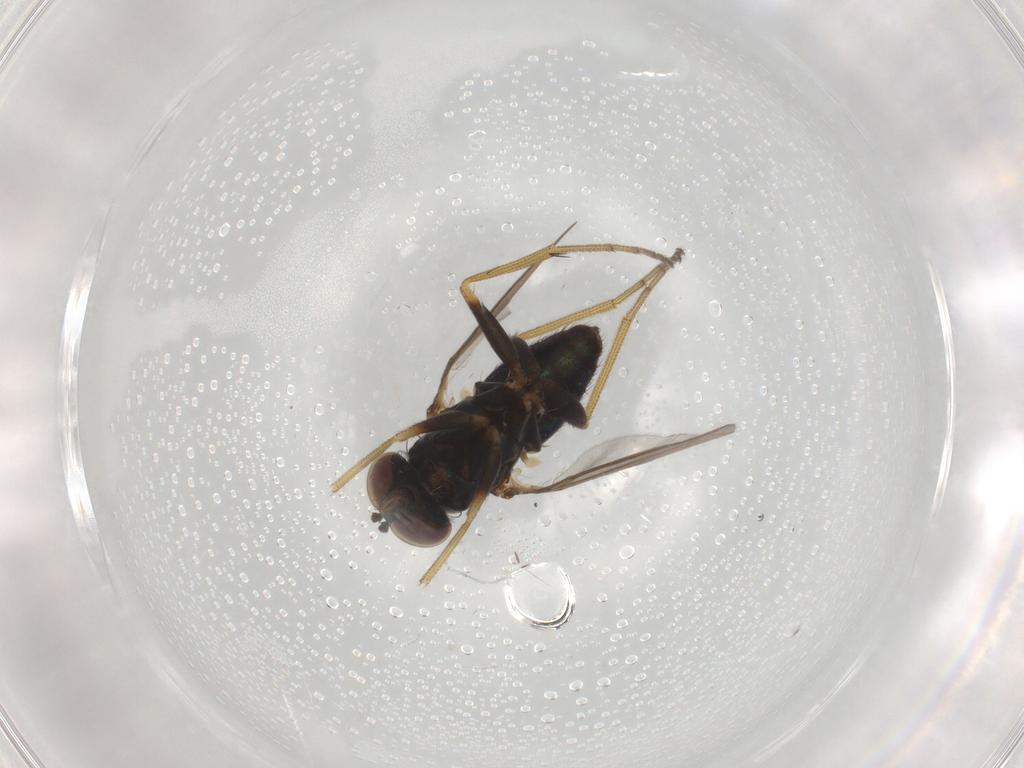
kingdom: Animalia
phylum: Arthropoda
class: Insecta
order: Diptera
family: Dolichopodidae
